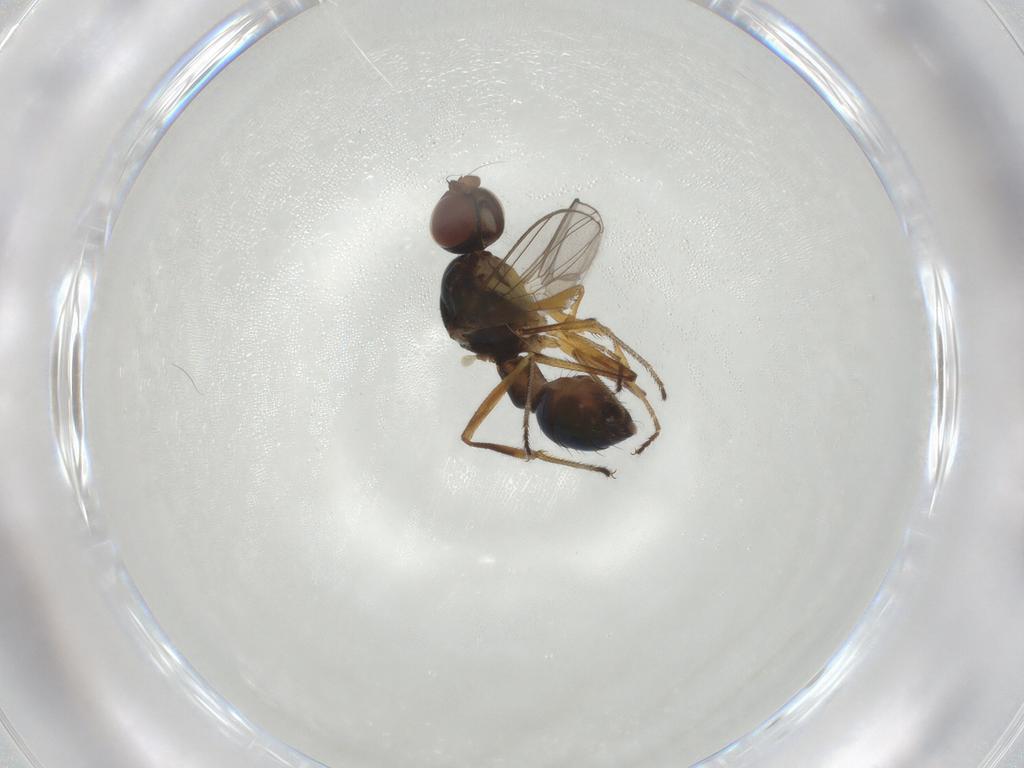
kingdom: Animalia
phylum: Arthropoda
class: Insecta
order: Diptera
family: Sepsidae
